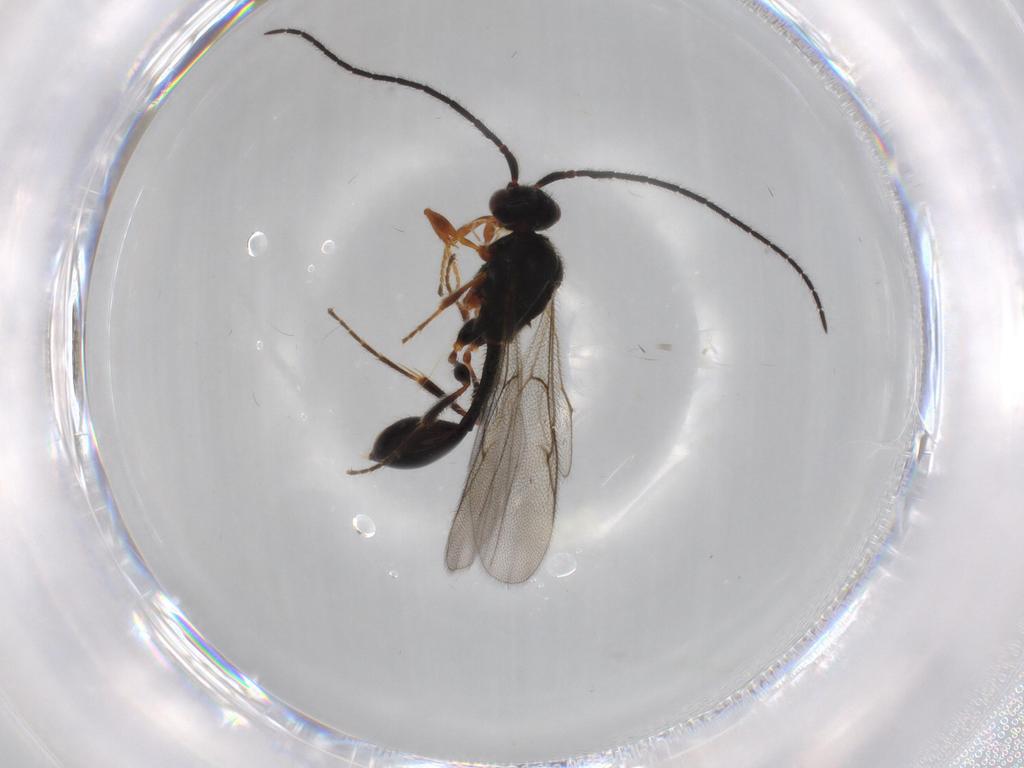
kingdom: Animalia
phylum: Arthropoda
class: Insecta
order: Hymenoptera
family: Diapriidae
